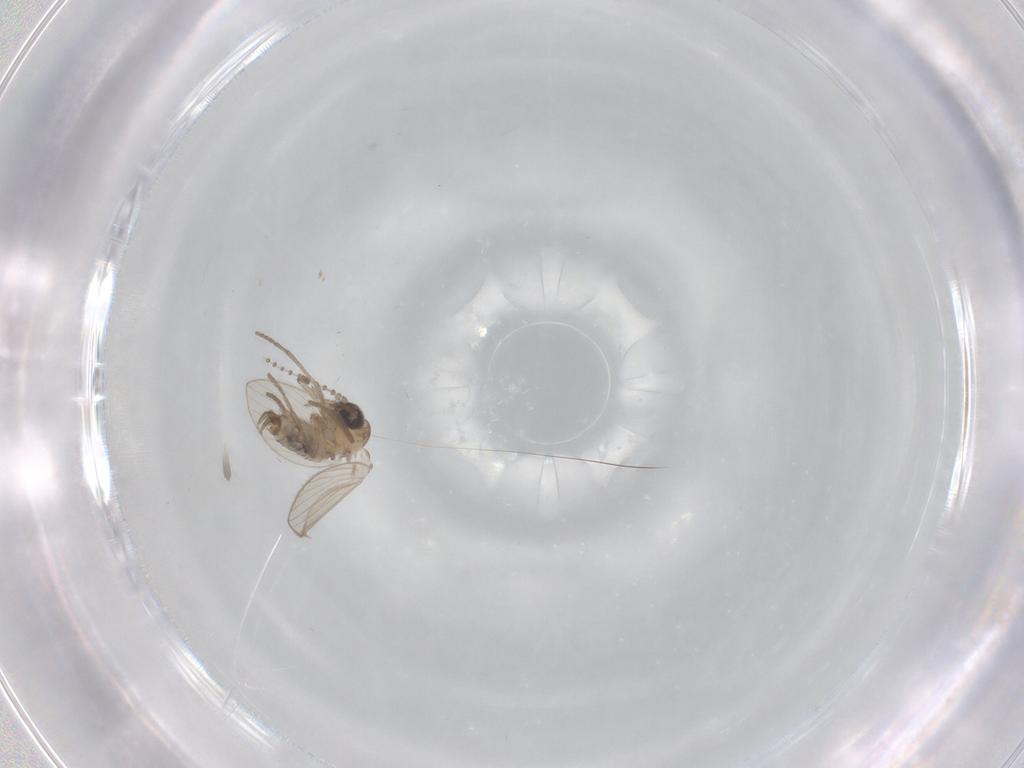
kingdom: Animalia
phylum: Arthropoda
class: Insecta
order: Diptera
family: Psychodidae
